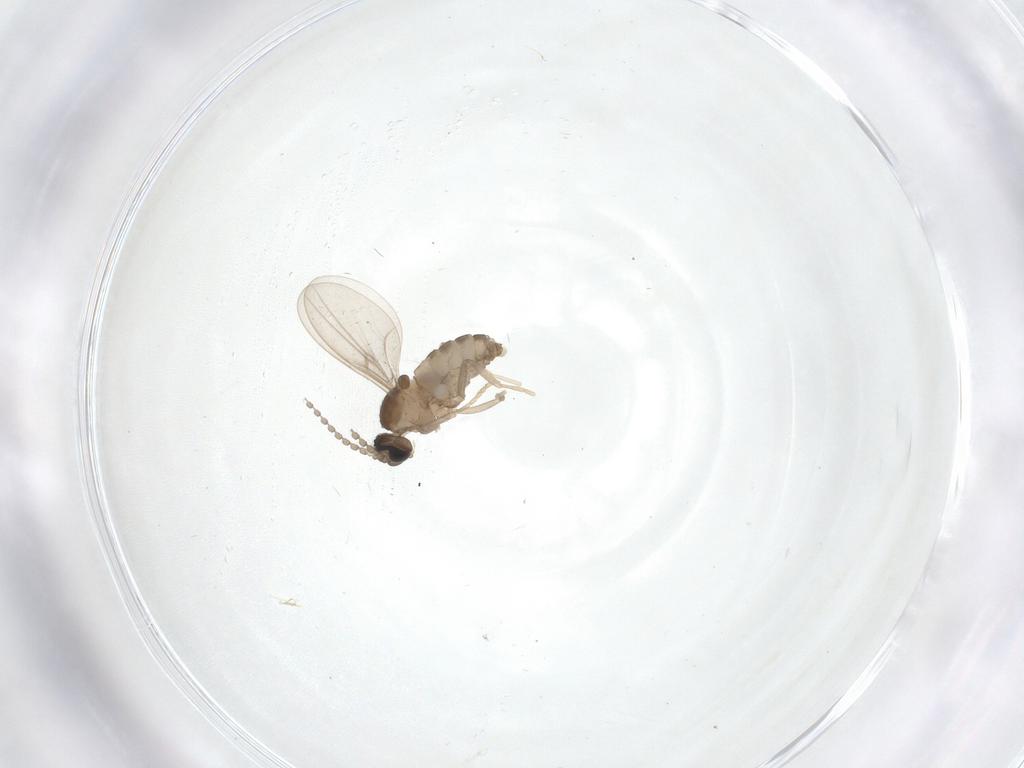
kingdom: Animalia
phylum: Arthropoda
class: Insecta
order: Diptera
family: Cecidomyiidae
